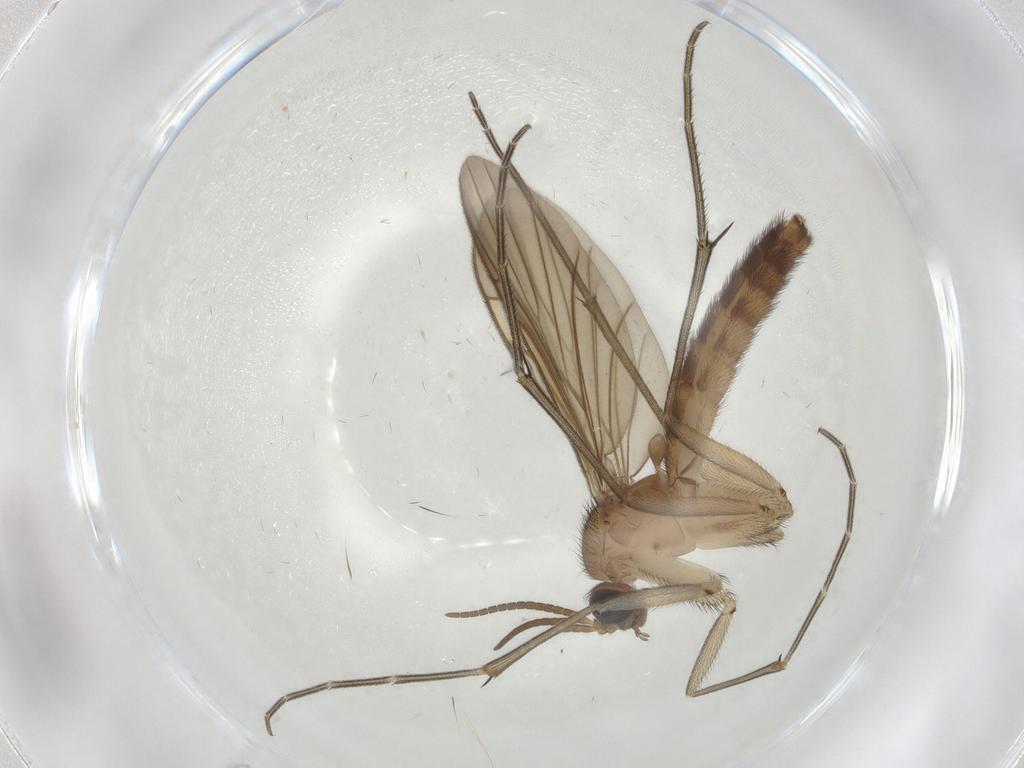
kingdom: Animalia
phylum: Arthropoda
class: Insecta
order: Diptera
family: Keroplatidae
